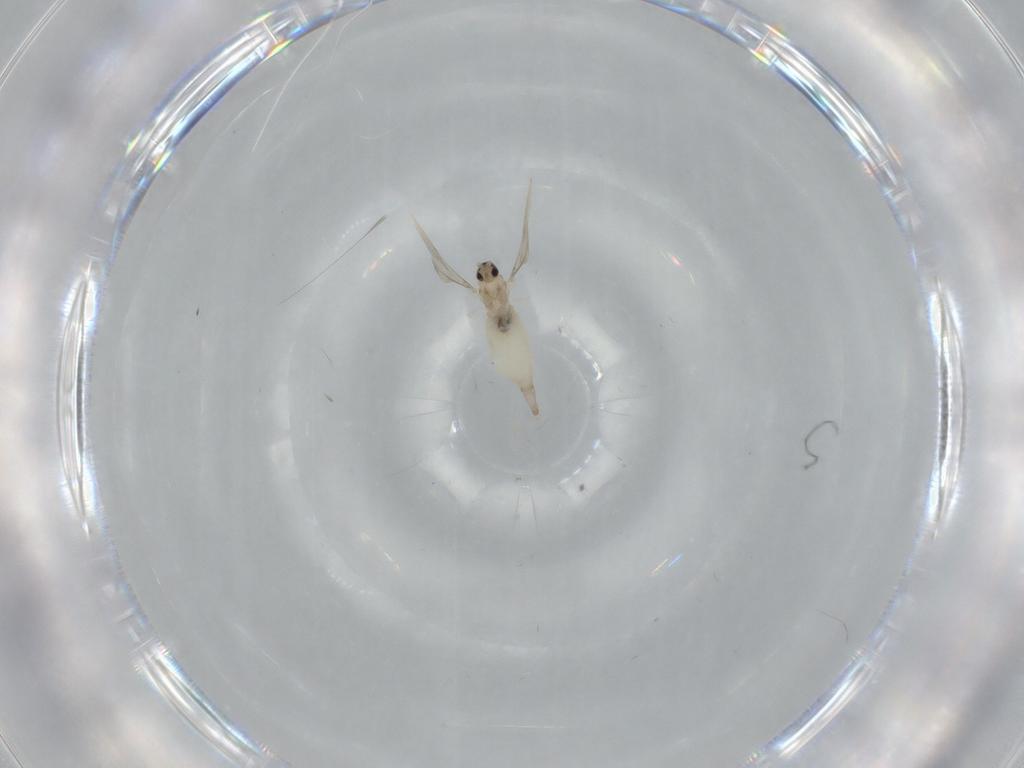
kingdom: Animalia
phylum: Arthropoda
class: Insecta
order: Diptera
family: Cecidomyiidae
